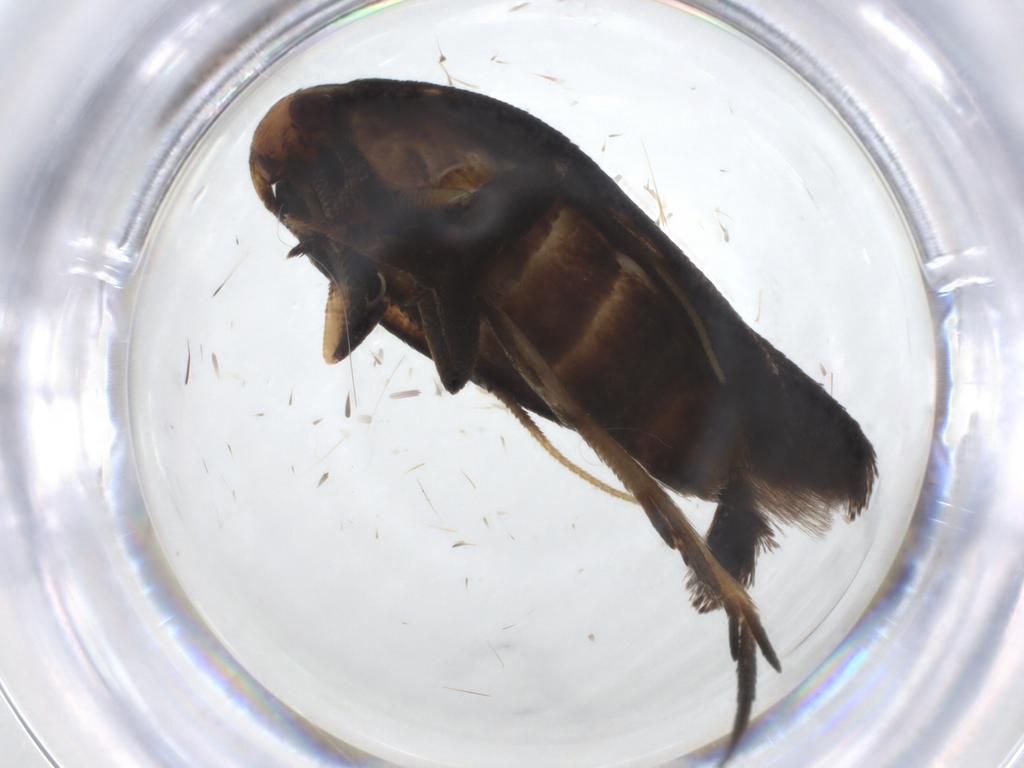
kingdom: Animalia
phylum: Arthropoda
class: Insecta
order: Lepidoptera
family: Oecophoridae
